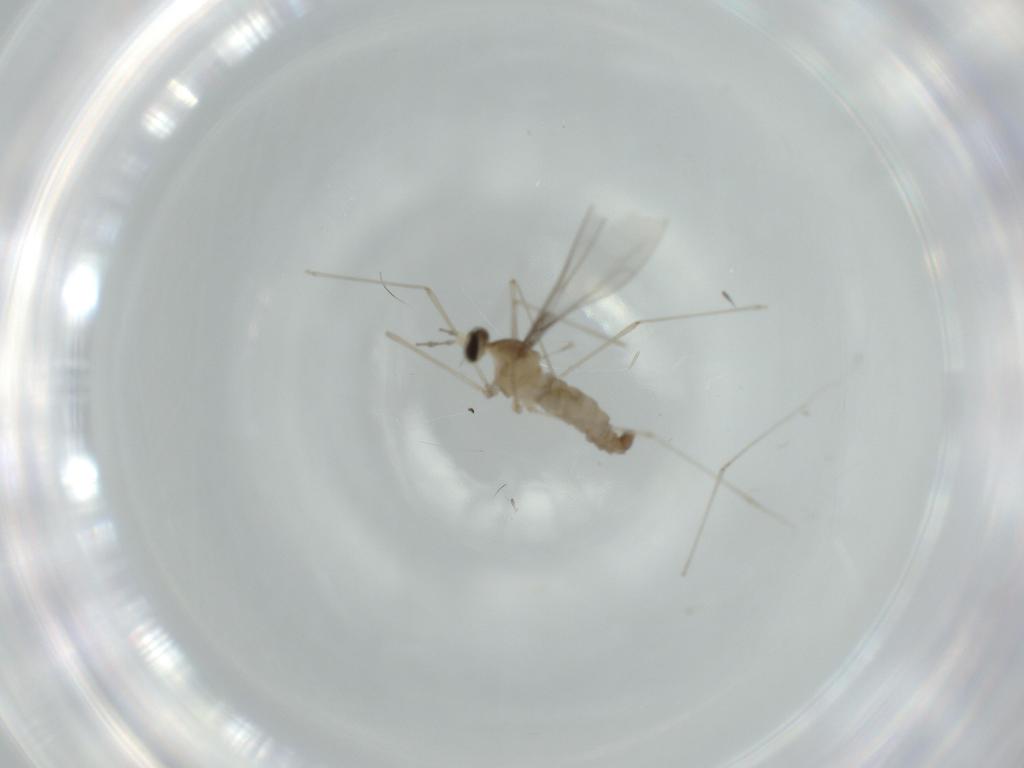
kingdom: Animalia
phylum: Arthropoda
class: Insecta
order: Diptera
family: Cecidomyiidae
